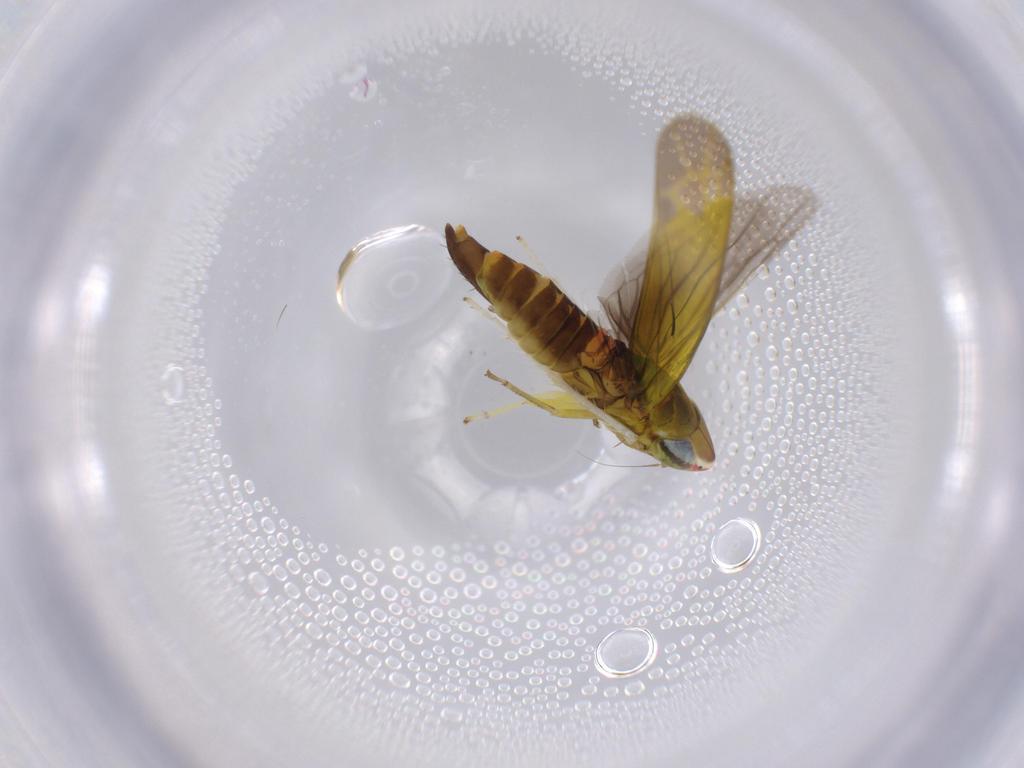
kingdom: Animalia
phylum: Arthropoda
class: Insecta
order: Hemiptera
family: Cicadellidae
